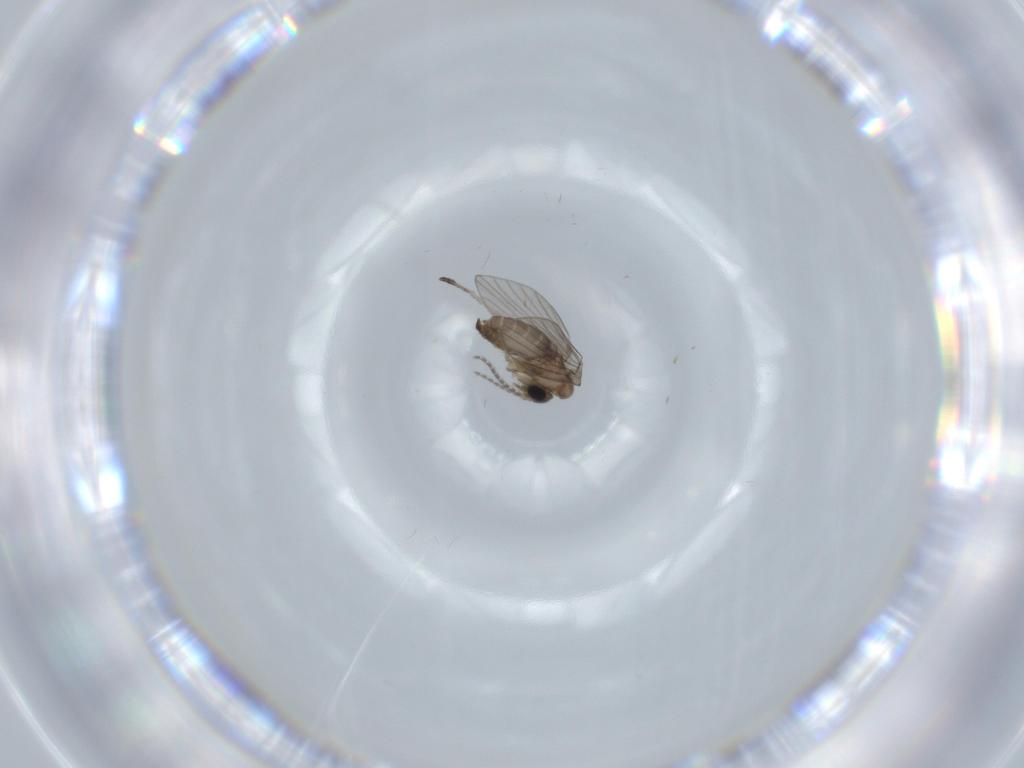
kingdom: Animalia
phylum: Arthropoda
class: Insecta
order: Diptera
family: Psychodidae
